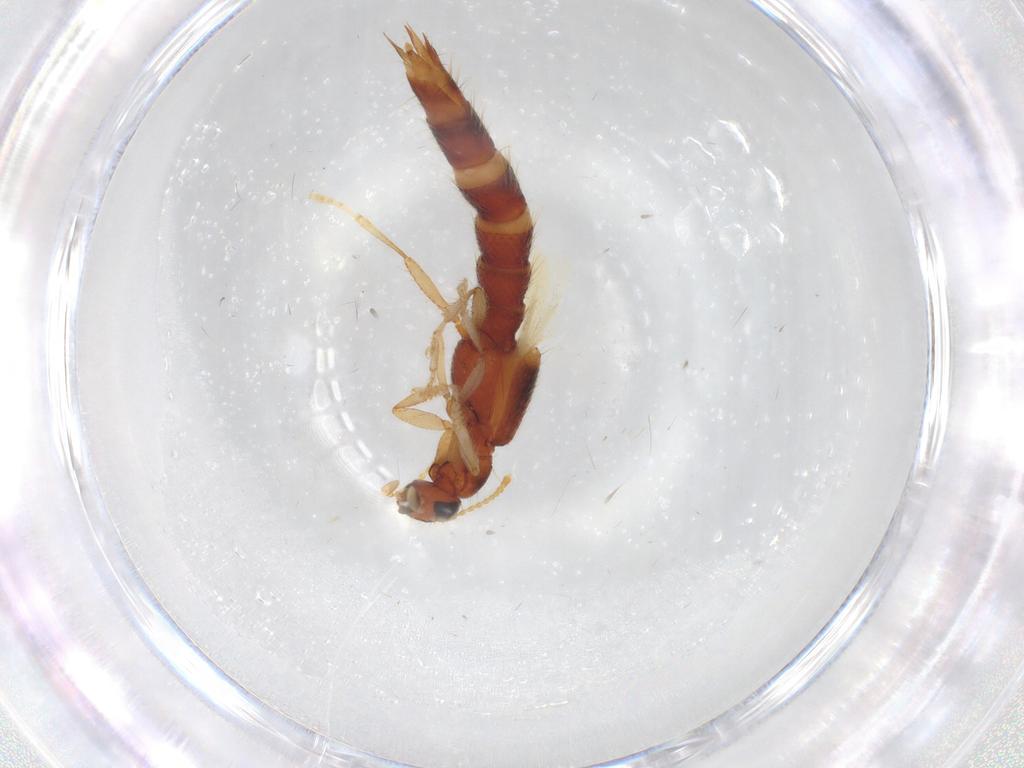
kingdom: Animalia
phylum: Arthropoda
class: Insecta
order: Coleoptera
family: Staphylinidae
